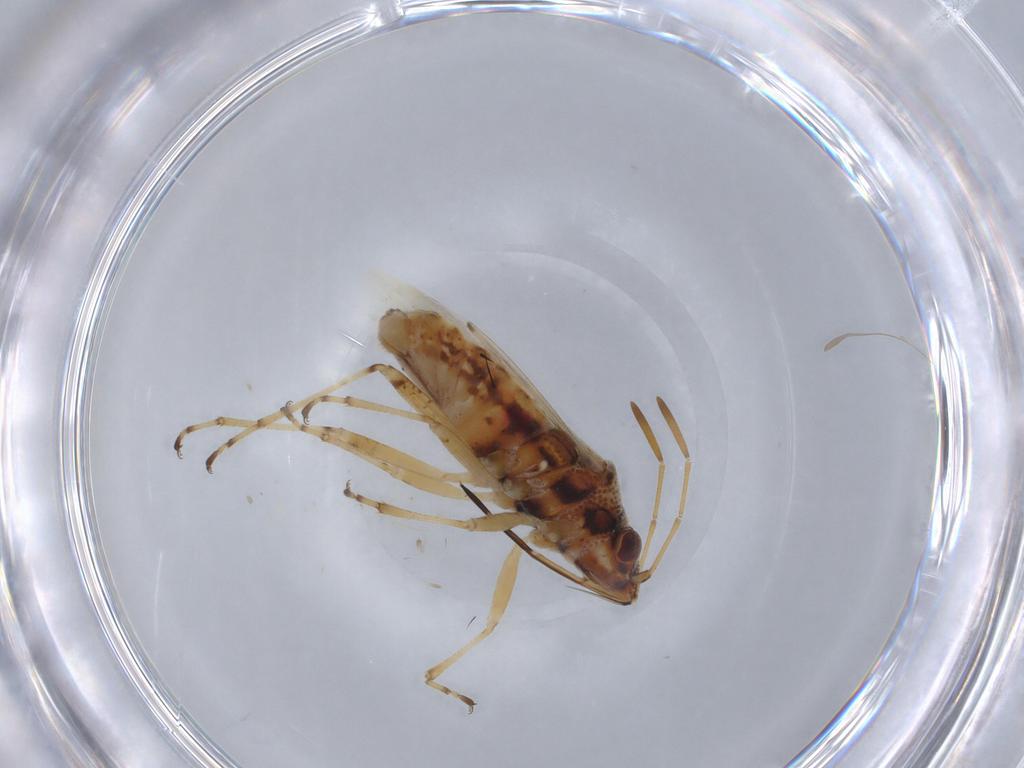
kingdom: Animalia
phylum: Arthropoda
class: Insecta
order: Hemiptera
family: Lygaeidae
